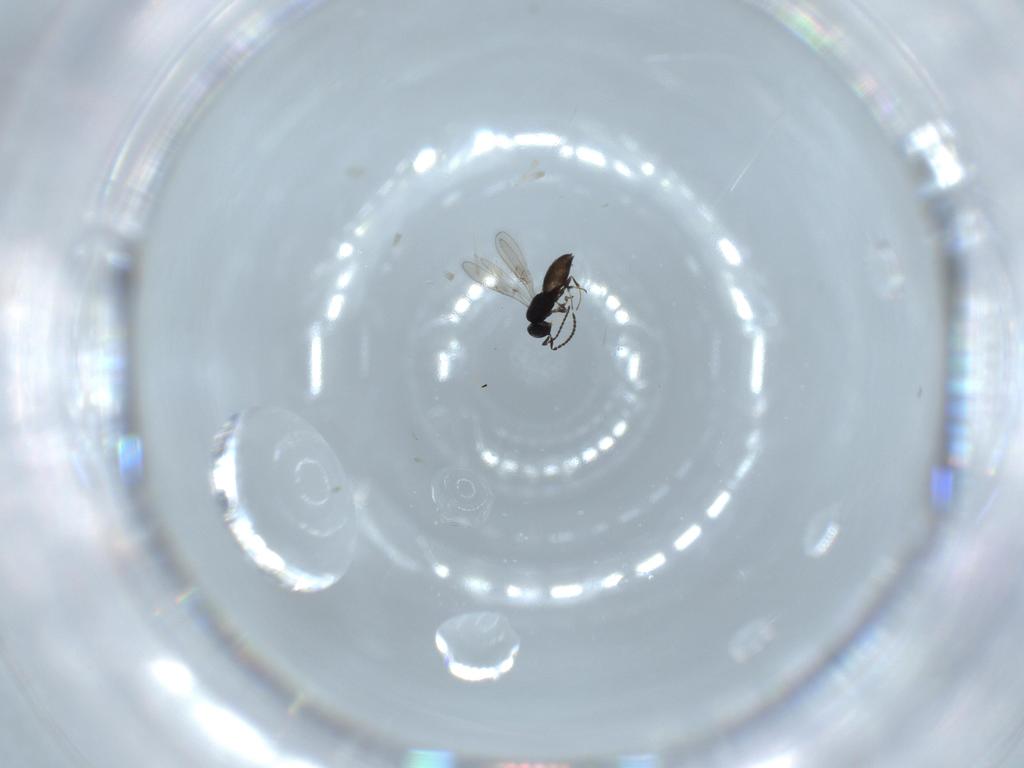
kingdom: Animalia
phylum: Arthropoda
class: Insecta
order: Hymenoptera
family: Scelionidae
